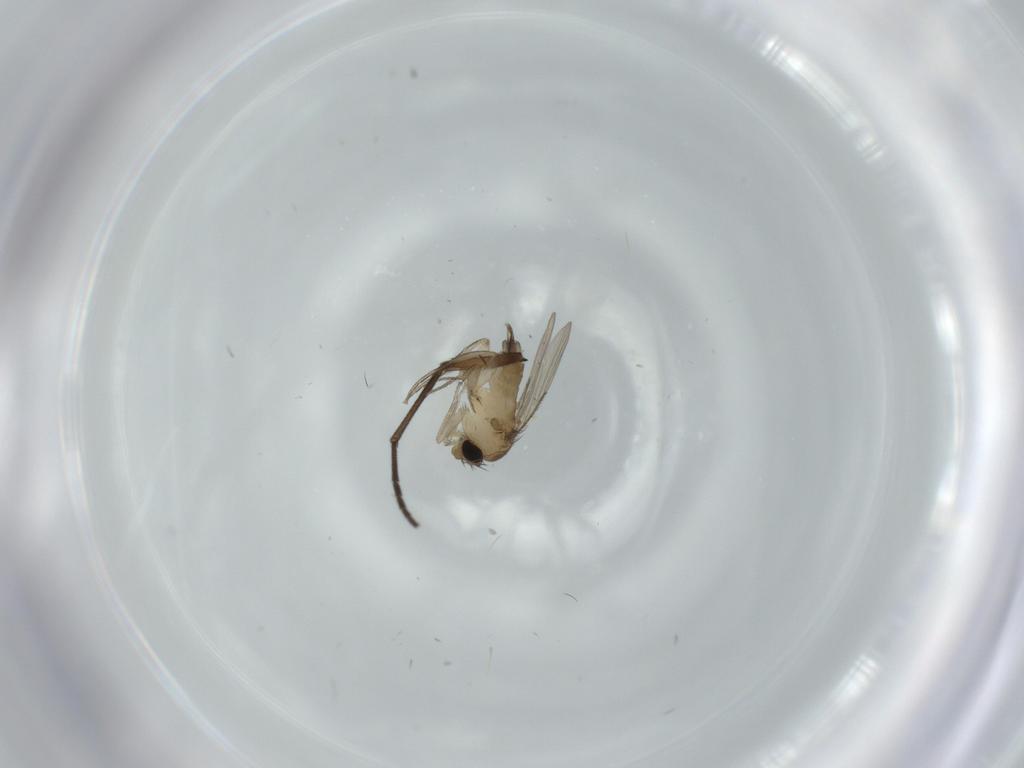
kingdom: Animalia
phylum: Arthropoda
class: Insecta
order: Diptera
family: Phoridae
